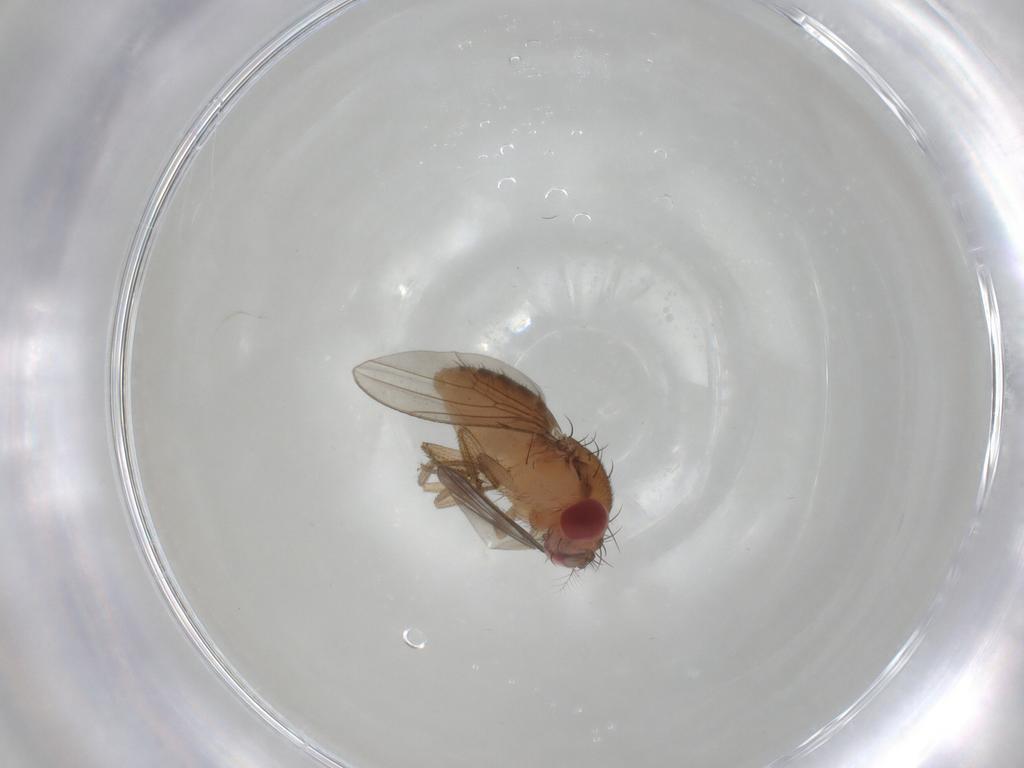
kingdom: Animalia
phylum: Arthropoda
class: Insecta
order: Diptera
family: Drosophilidae
